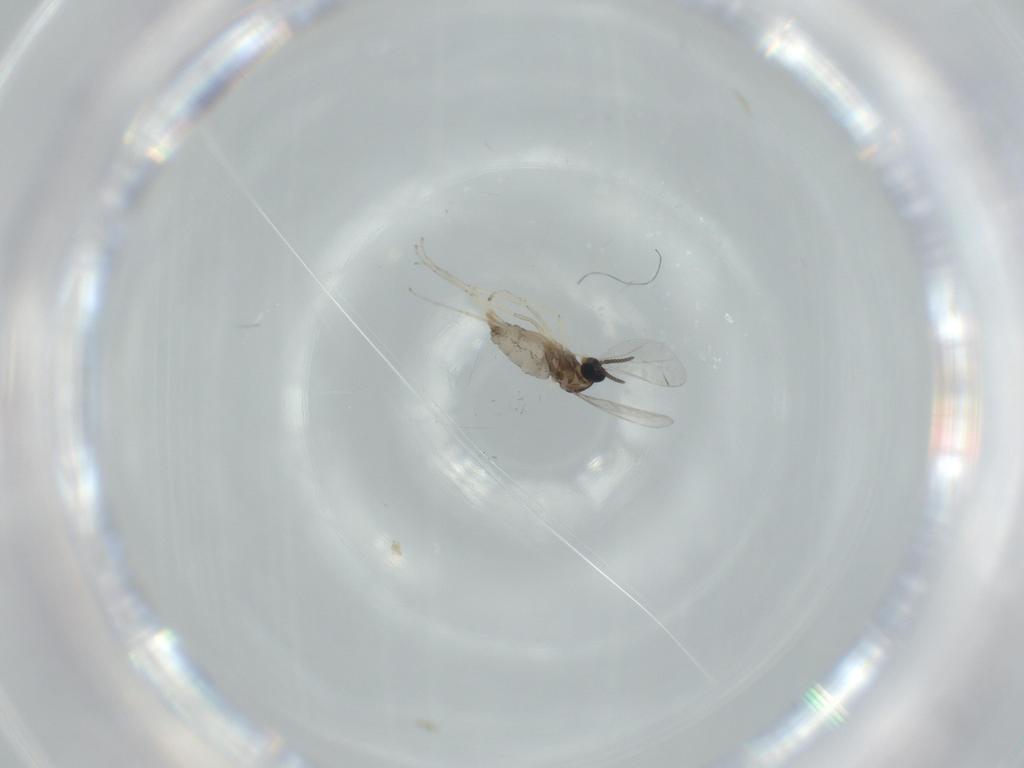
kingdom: Animalia
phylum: Arthropoda
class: Insecta
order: Diptera
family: Cecidomyiidae
